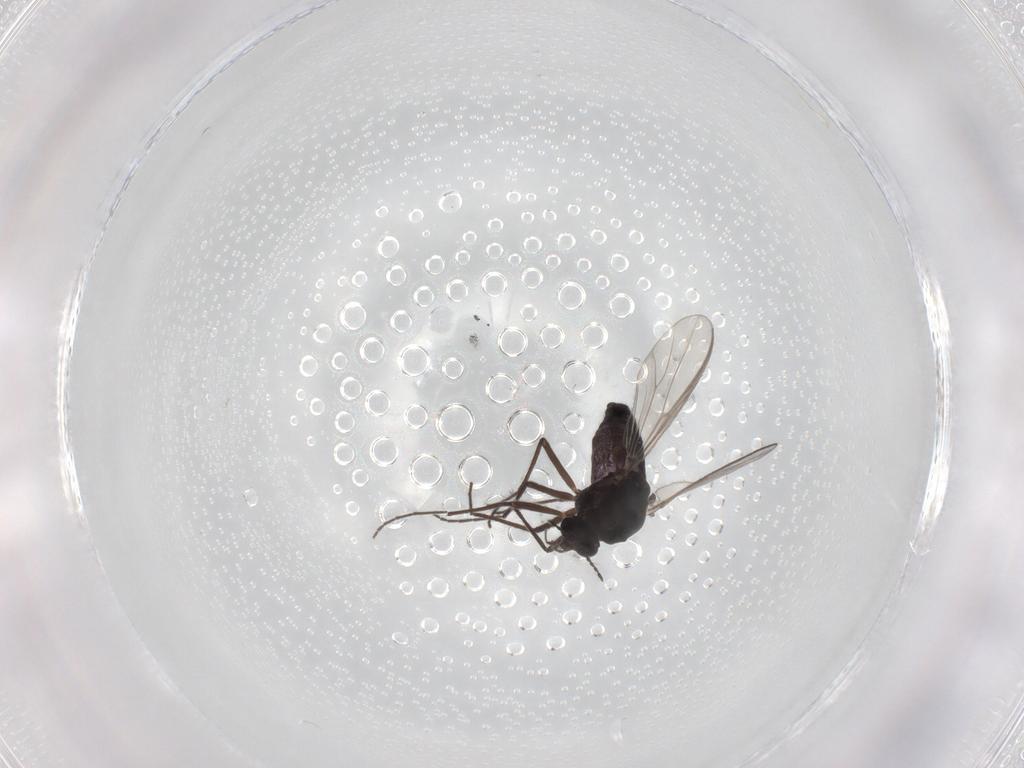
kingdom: Animalia
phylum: Arthropoda
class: Insecta
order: Diptera
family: Chironomidae
